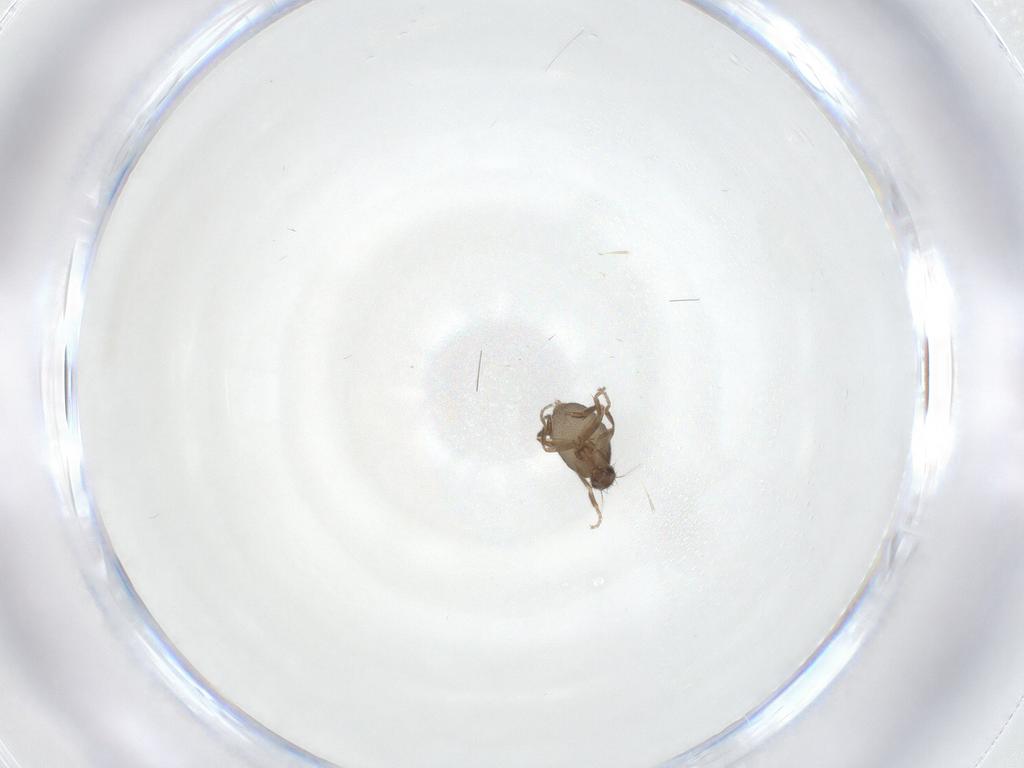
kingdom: Animalia
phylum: Arthropoda
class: Insecta
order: Diptera
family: Phoridae
